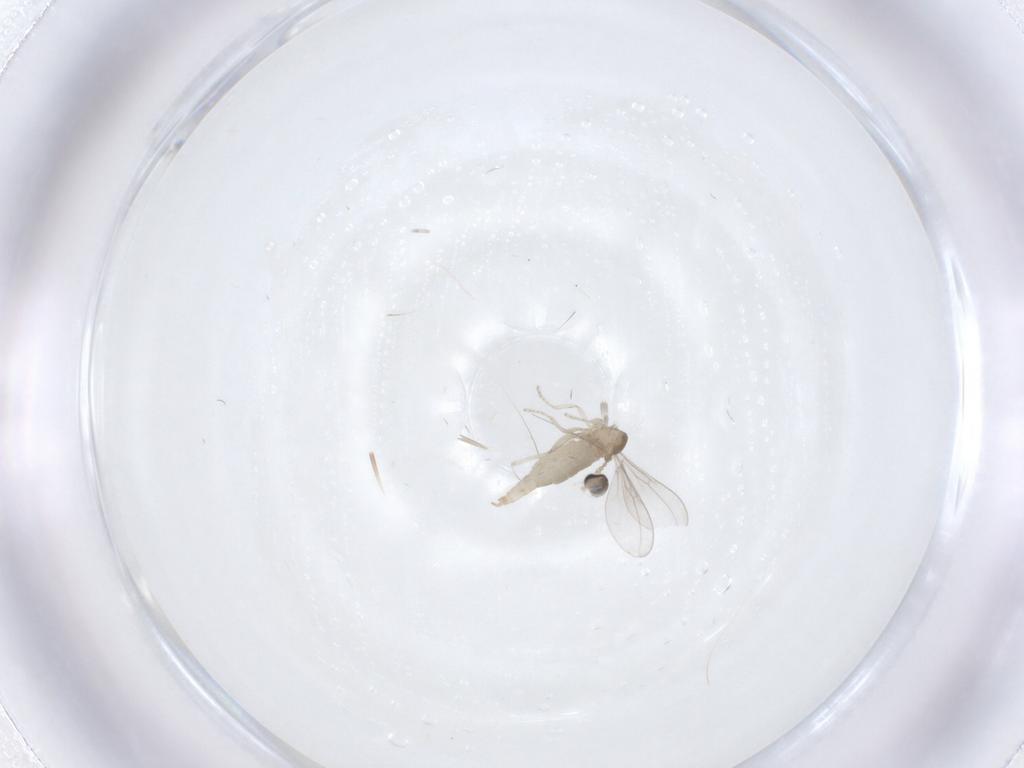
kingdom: Animalia
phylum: Arthropoda
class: Insecta
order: Diptera
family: Cecidomyiidae
